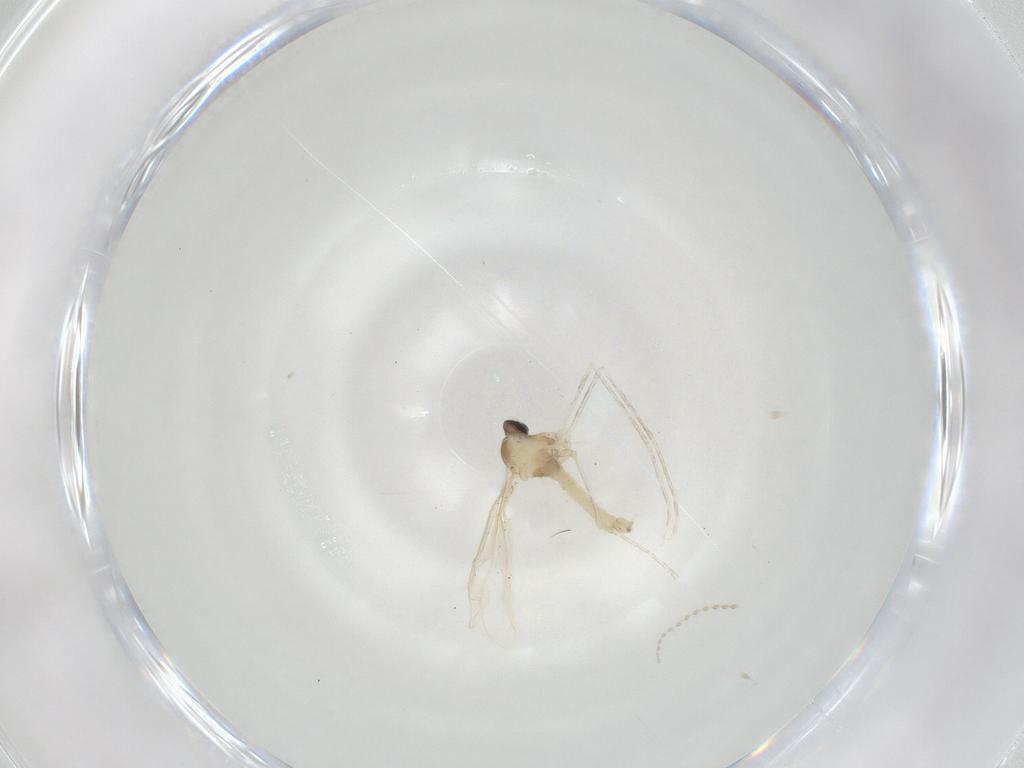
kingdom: Animalia
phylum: Arthropoda
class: Insecta
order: Diptera
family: Cecidomyiidae
